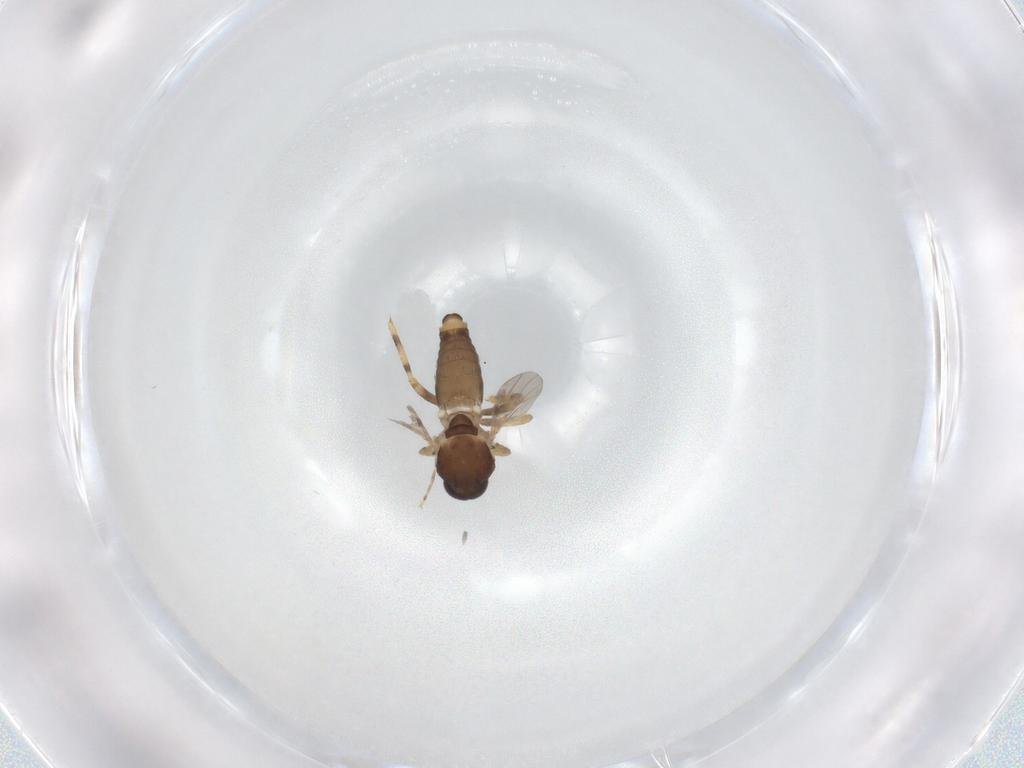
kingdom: Animalia
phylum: Arthropoda
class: Insecta
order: Diptera
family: Ceratopogonidae
